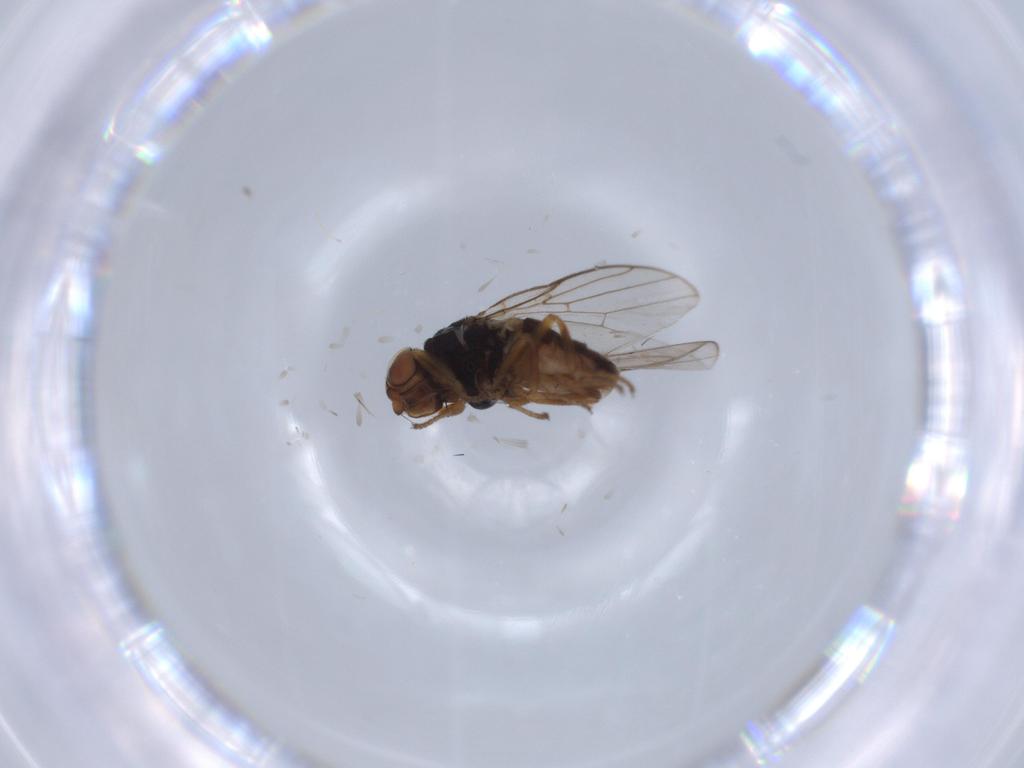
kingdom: Animalia
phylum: Arthropoda
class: Insecta
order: Diptera
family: Chloropidae
